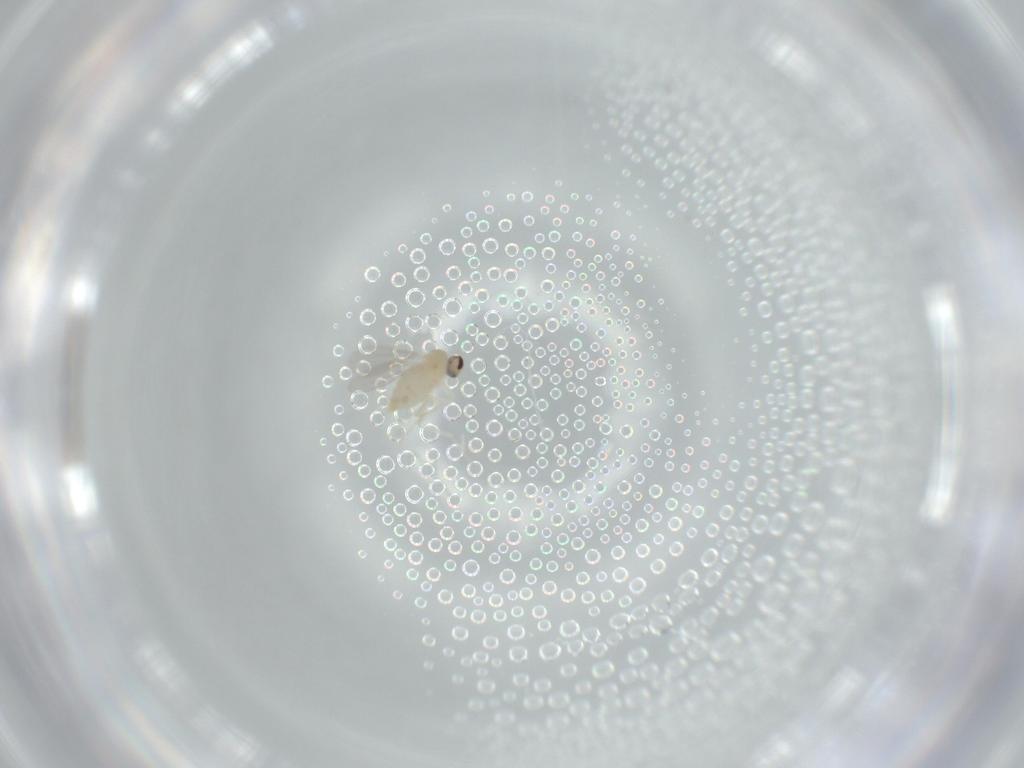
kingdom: Animalia
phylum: Arthropoda
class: Insecta
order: Diptera
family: Cecidomyiidae
